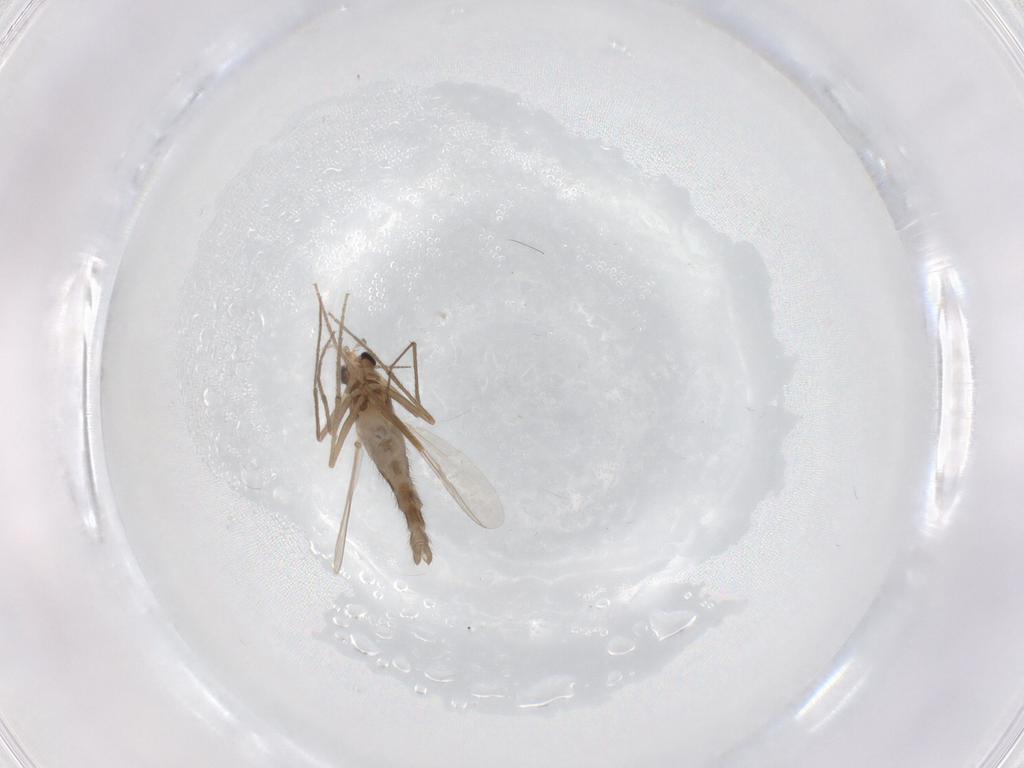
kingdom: Animalia
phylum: Arthropoda
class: Insecta
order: Diptera
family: Chironomidae
